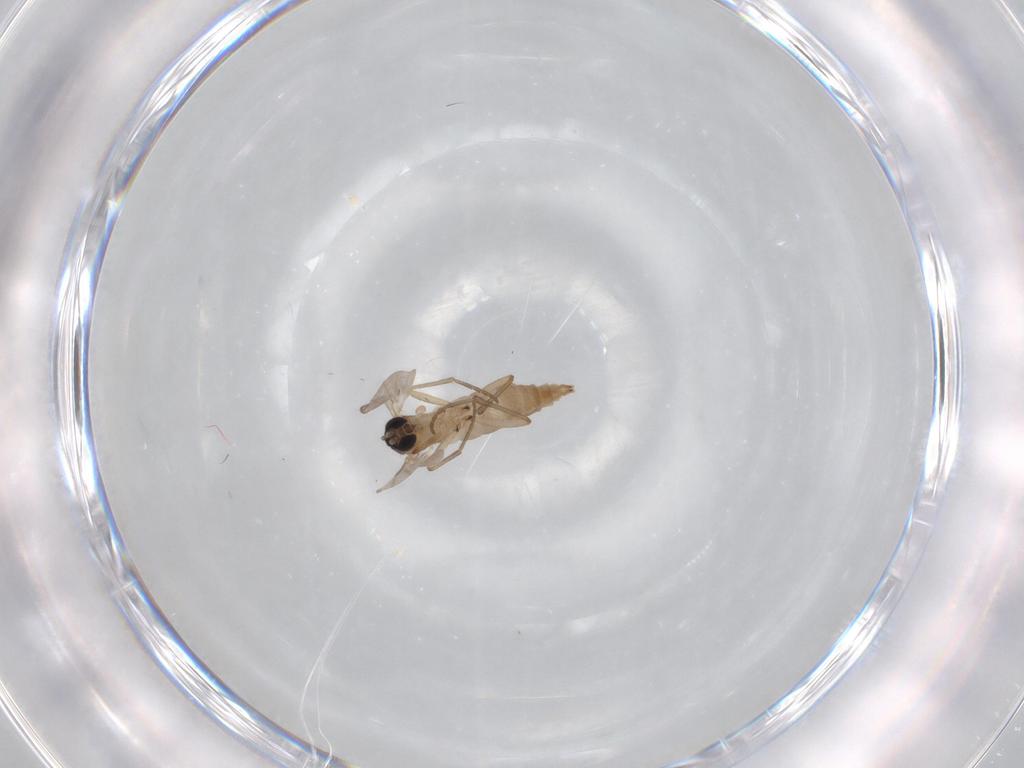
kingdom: Animalia
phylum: Arthropoda
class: Insecta
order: Diptera
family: Sciaridae
